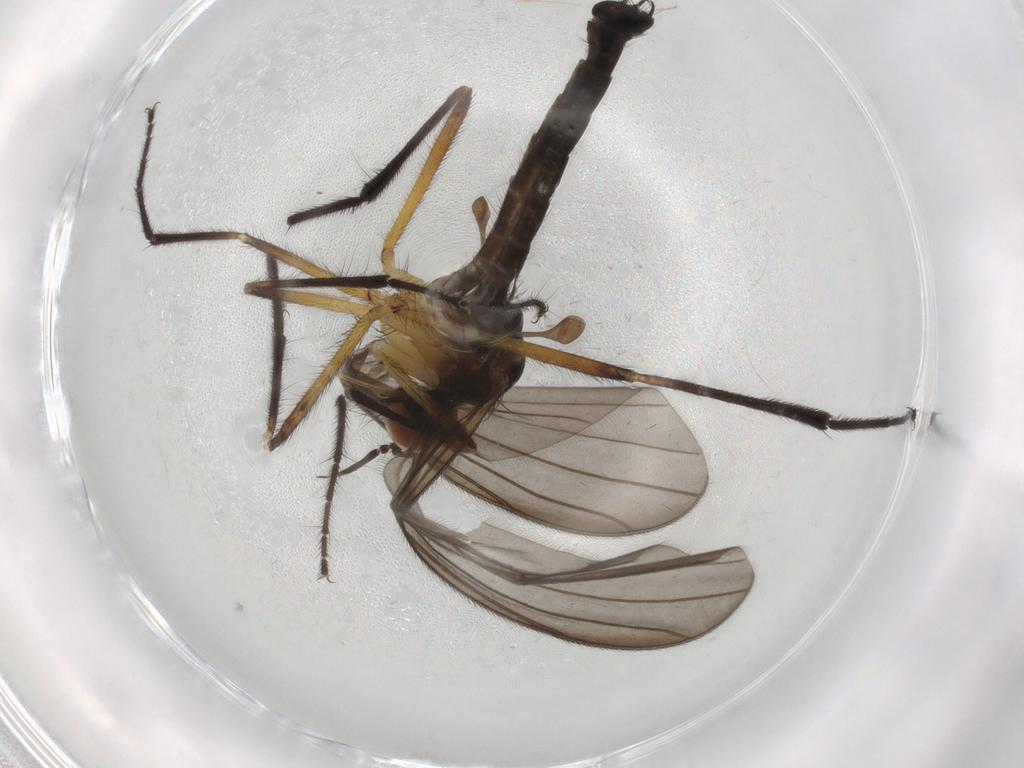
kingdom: Animalia
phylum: Arthropoda
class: Insecta
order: Diptera
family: Empididae
